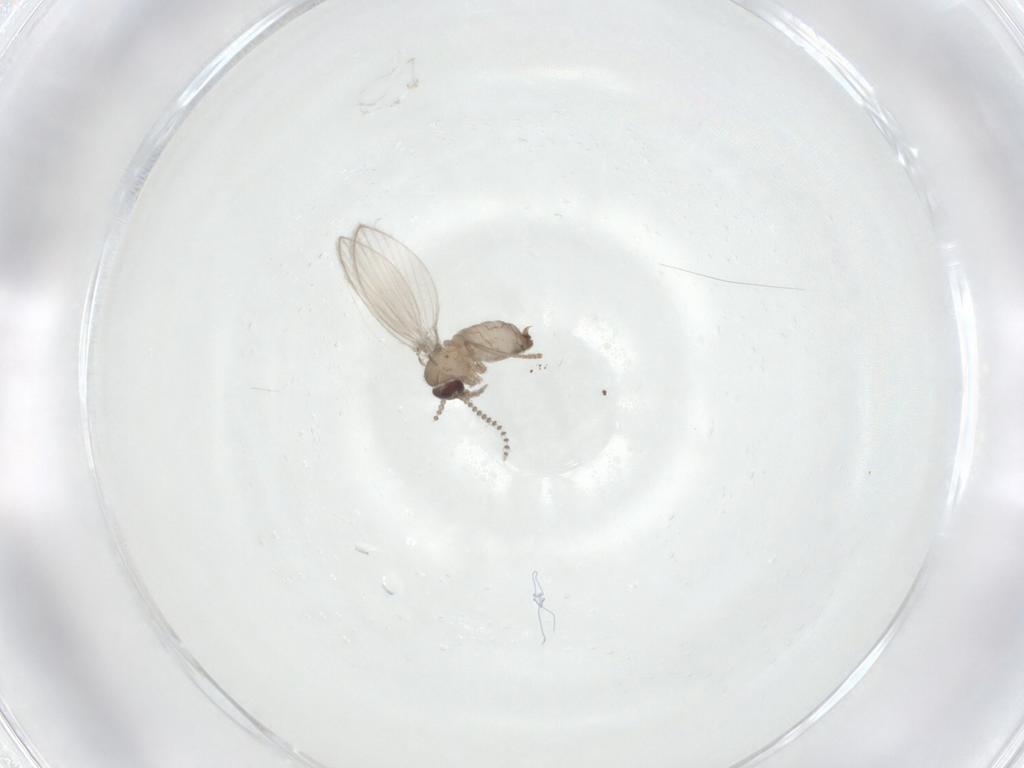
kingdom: Animalia
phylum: Arthropoda
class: Insecta
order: Diptera
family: Psychodidae
